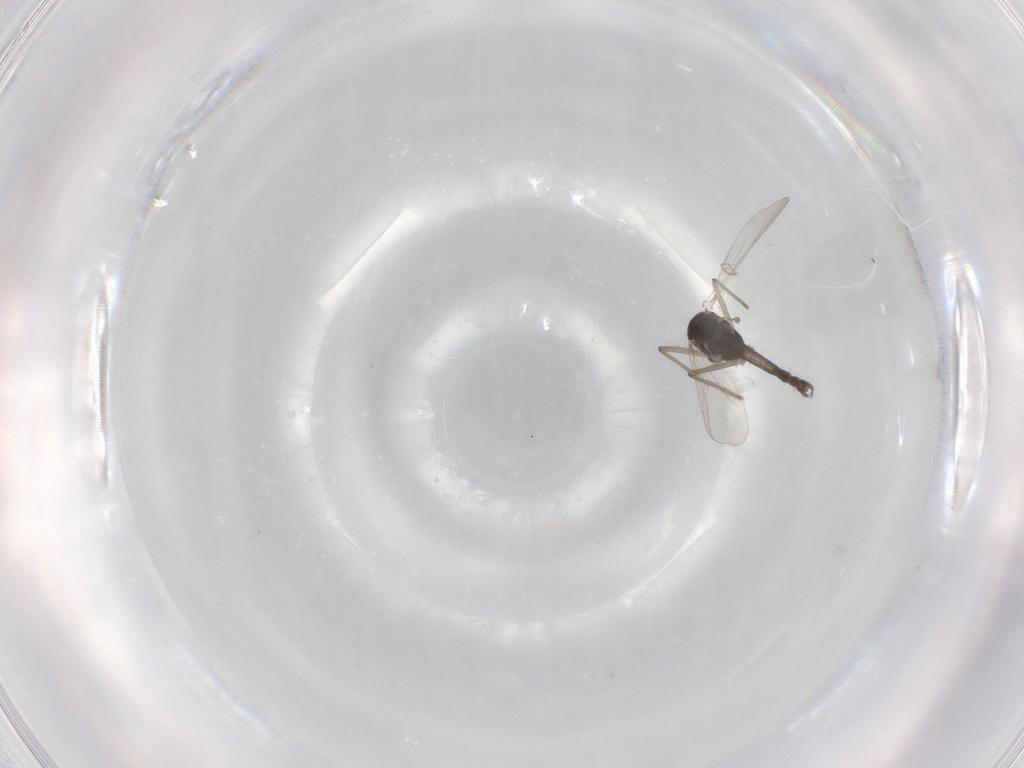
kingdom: Animalia
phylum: Arthropoda
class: Insecta
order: Diptera
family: Chironomidae
